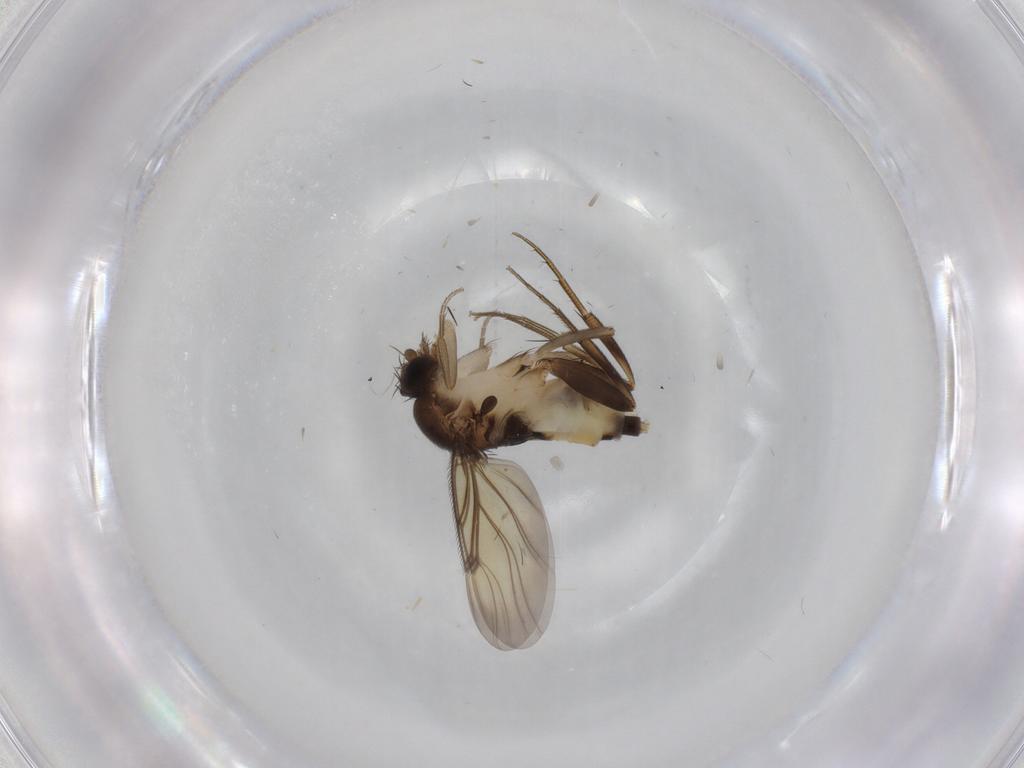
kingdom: Animalia
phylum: Arthropoda
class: Insecta
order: Diptera
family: Phoridae
